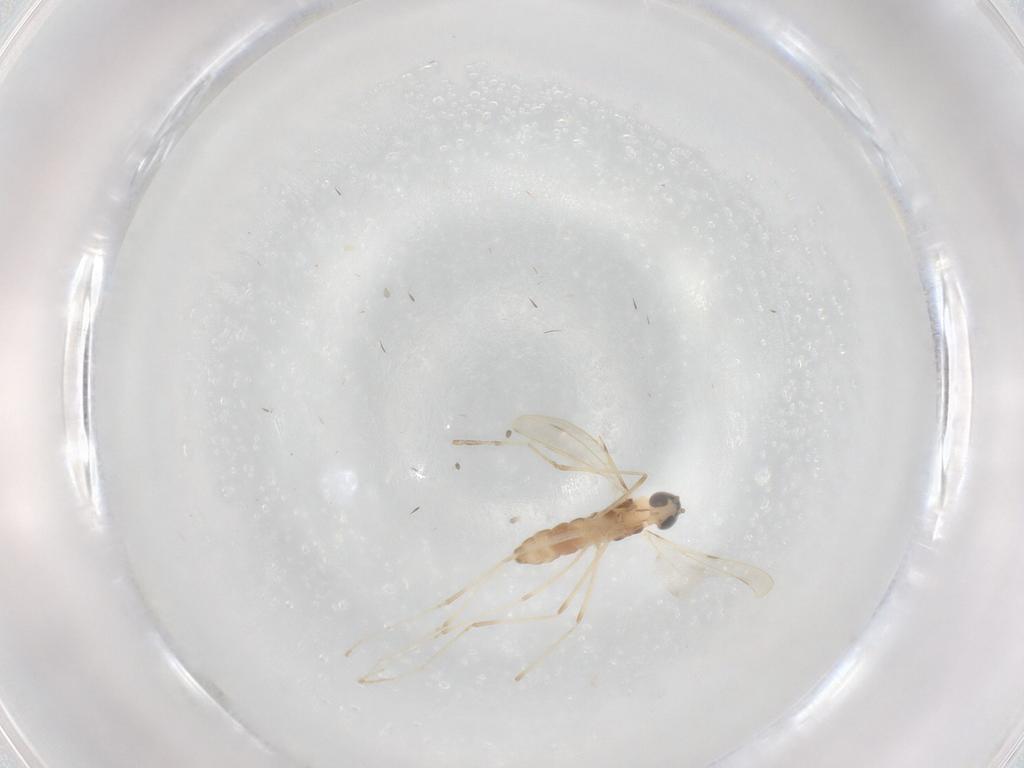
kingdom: Animalia
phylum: Arthropoda
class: Insecta
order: Diptera
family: Cecidomyiidae
